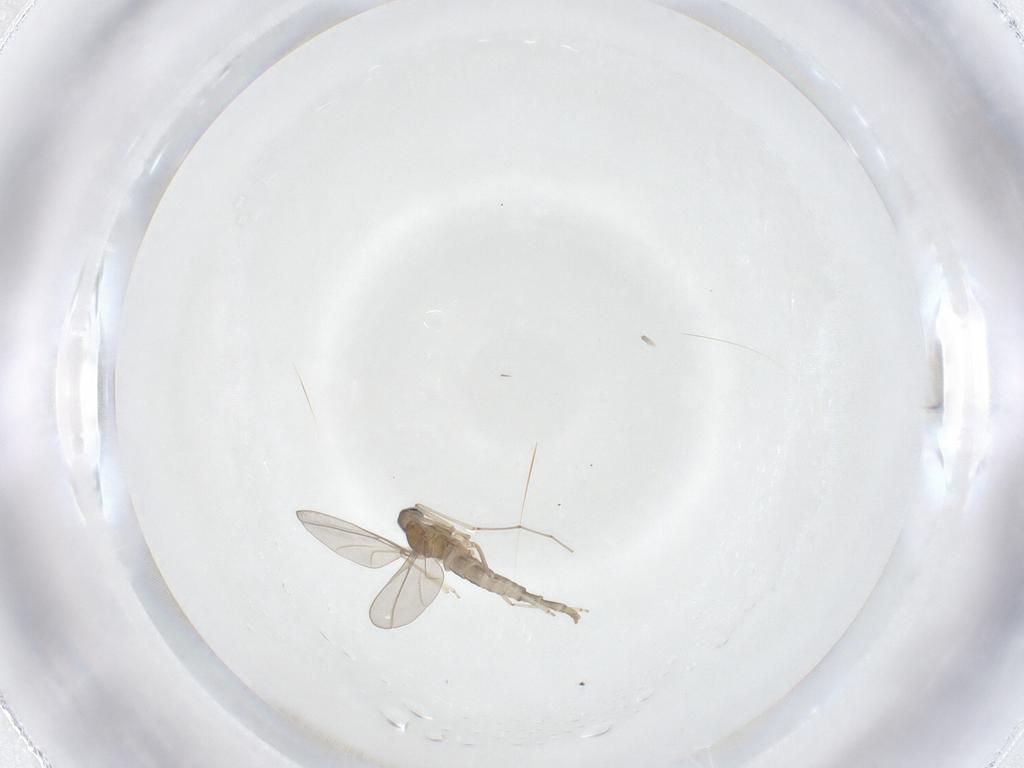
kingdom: Animalia
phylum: Arthropoda
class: Insecta
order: Diptera
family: Cecidomyiidae
